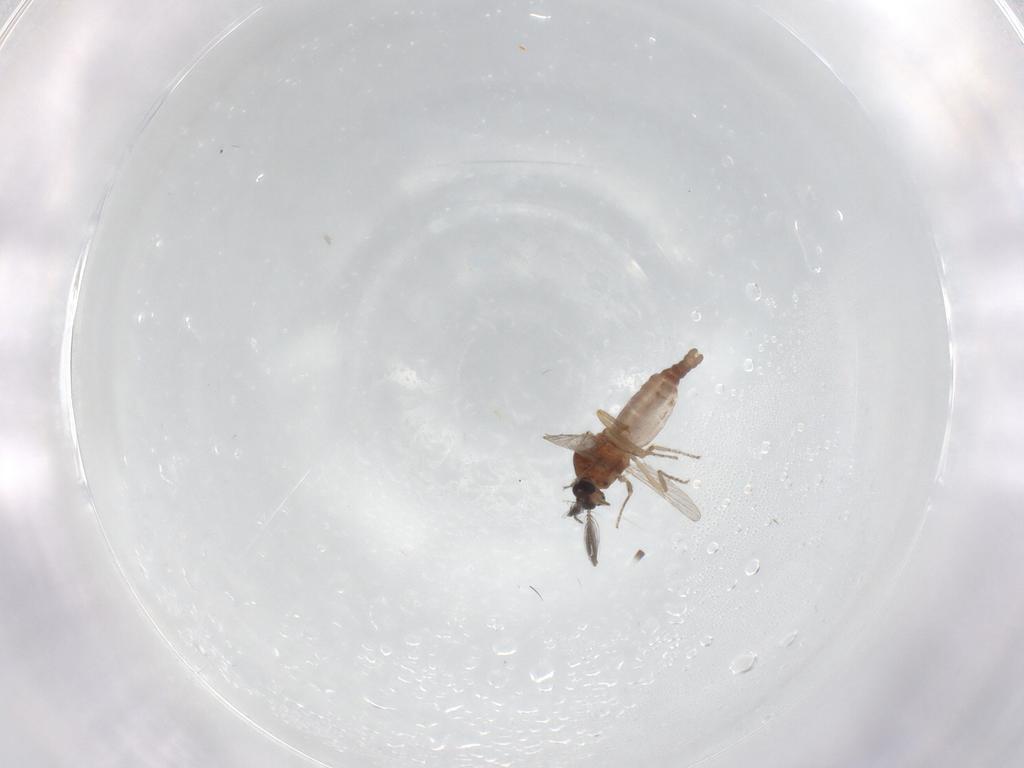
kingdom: Animalia
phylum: Arthropoda
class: Insecta
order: Diptera
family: Ceratopogonidae
